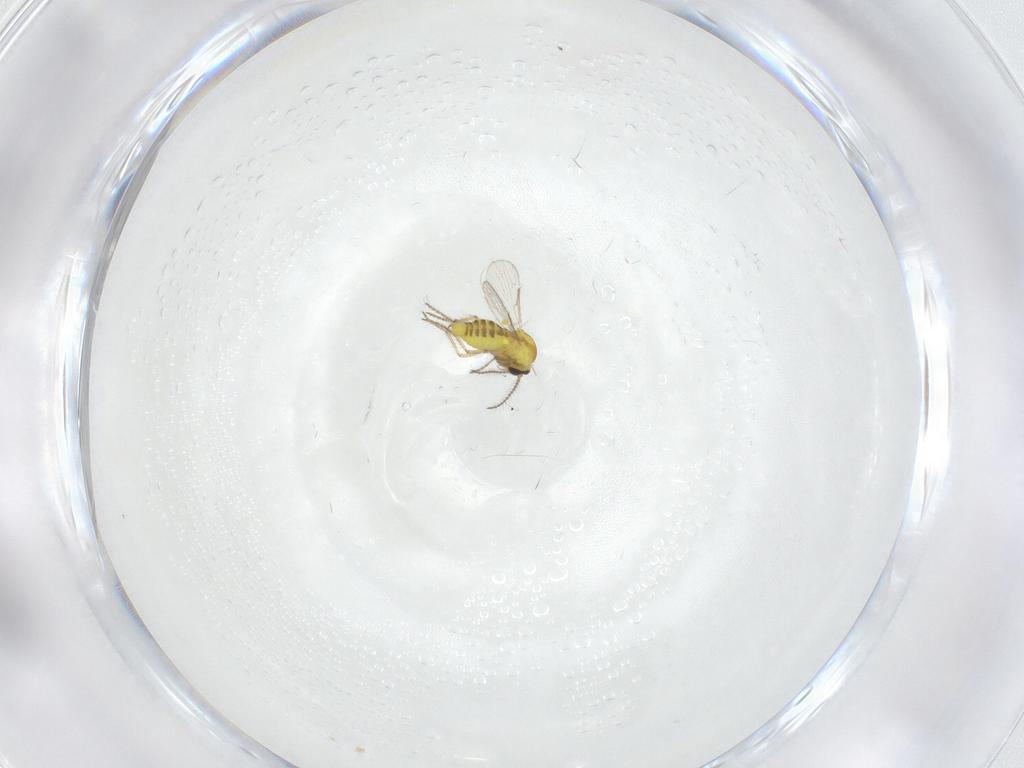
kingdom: Animalia
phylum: Arthropoda
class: Insecta
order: Diptera
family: Ceratopogonidae
